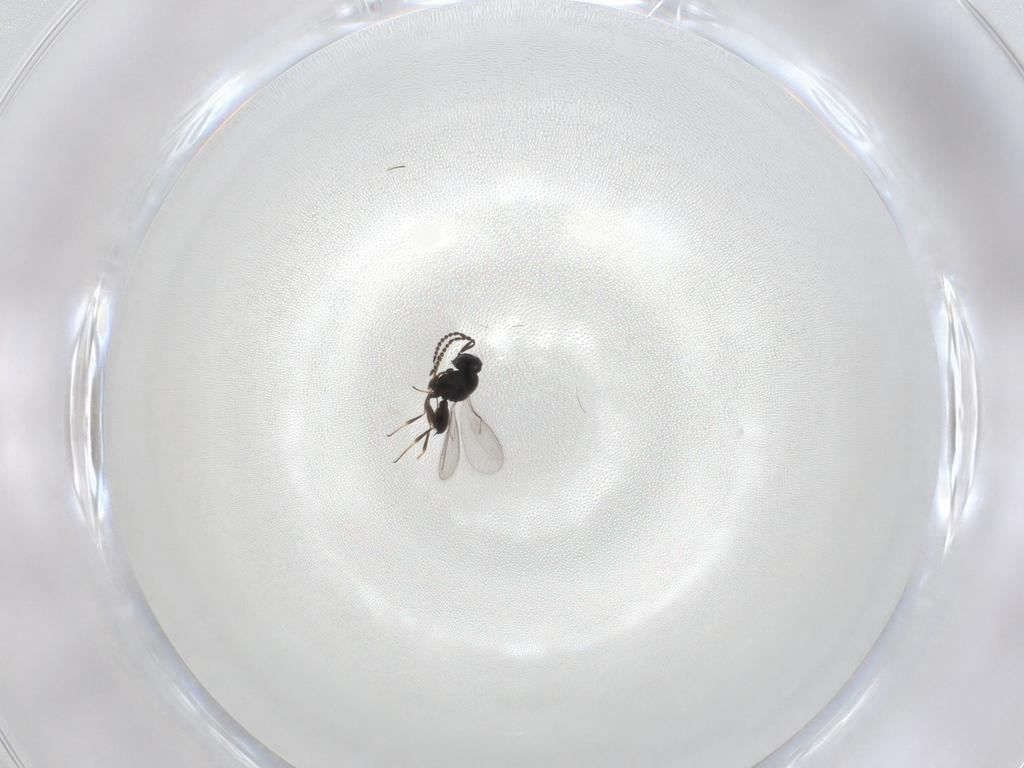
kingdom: Animalia
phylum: Arthropoda
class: Insecta
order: Hymenoptera
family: Scelionidae
